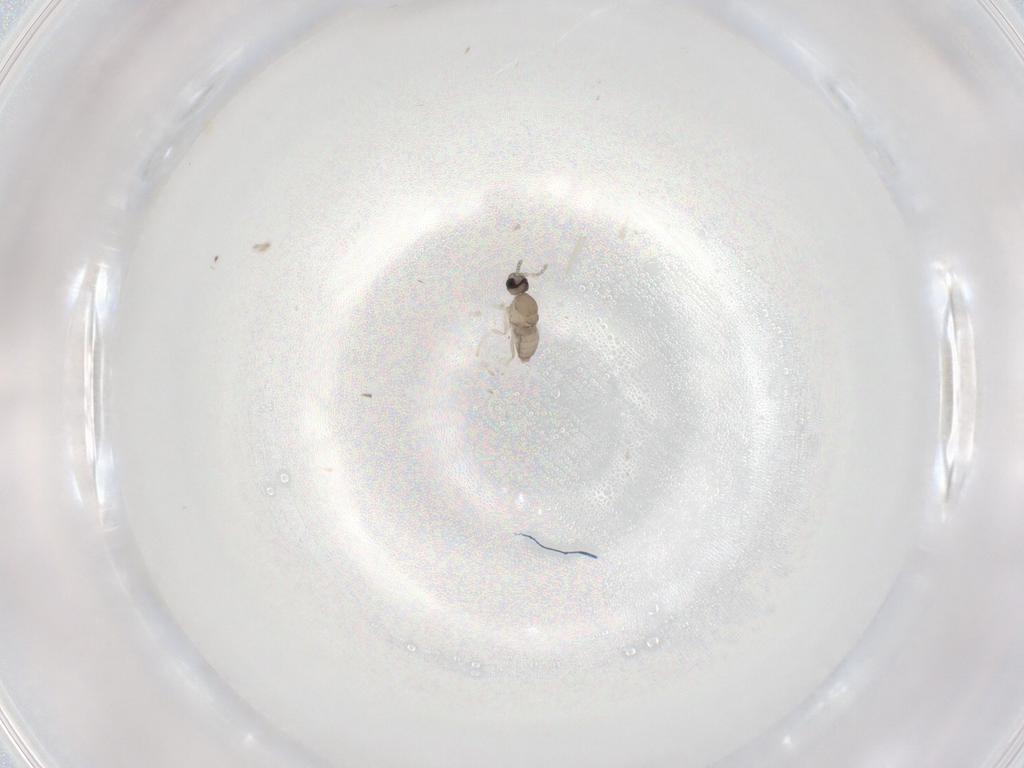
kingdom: Animalia
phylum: Arthropoda
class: Insecta
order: Diptera
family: Cecidomyiidae
